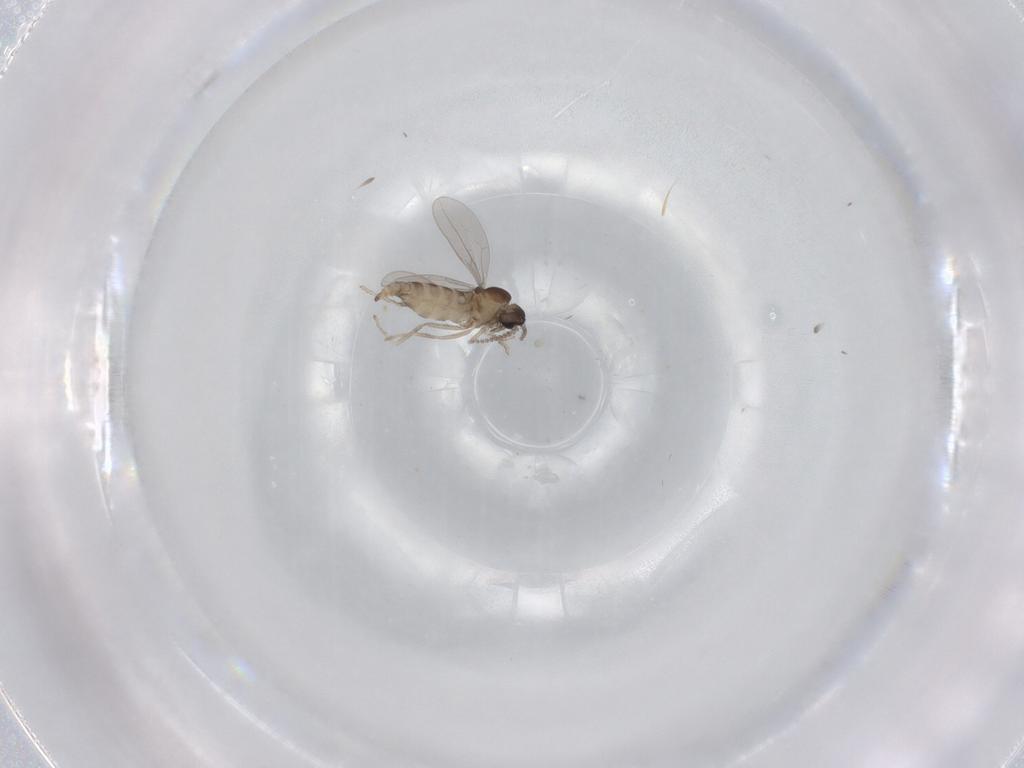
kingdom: Animalia
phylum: Arthropoda
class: Insecta
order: Diptera
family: Cecidomyiidae
